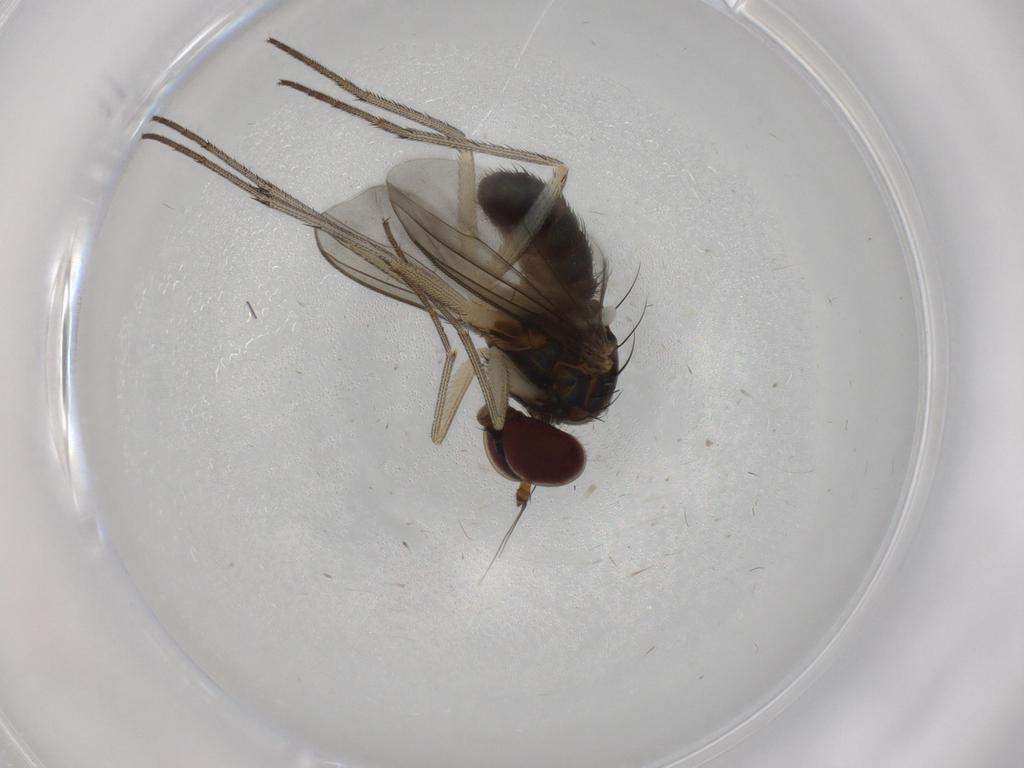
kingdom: Animalia
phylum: Arthropoda
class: Insecta
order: Diptera
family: Dolichopodidae
